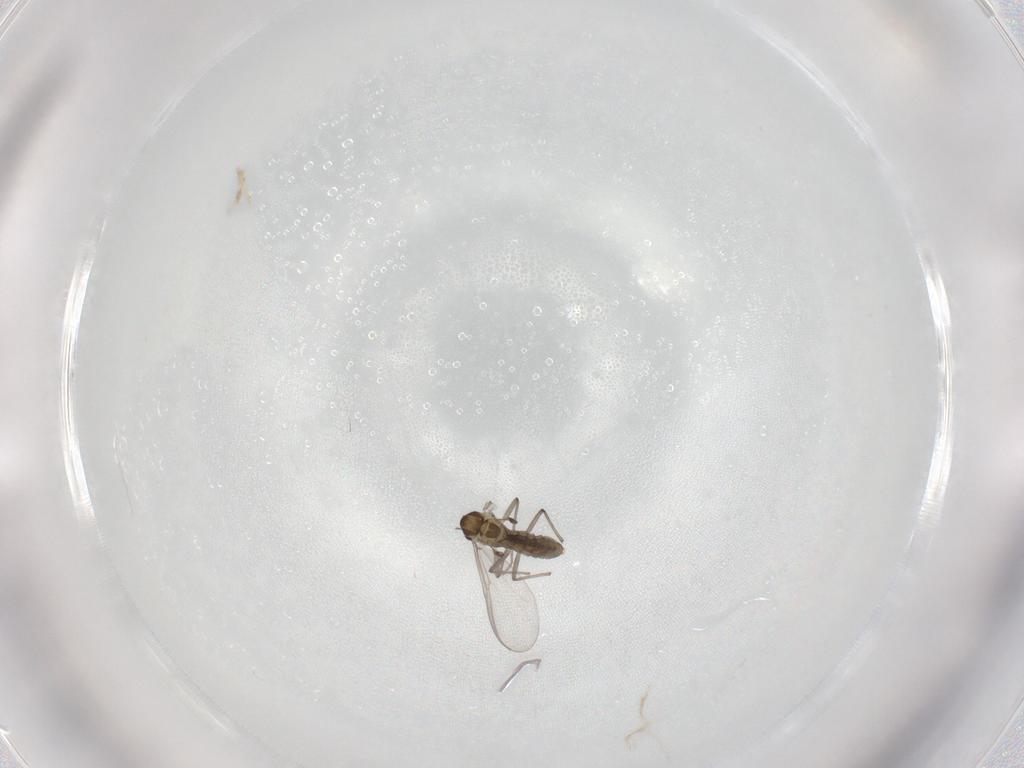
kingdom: Animalia
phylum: Arthropoda
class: Insecta
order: Diptera
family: Chironomidae
